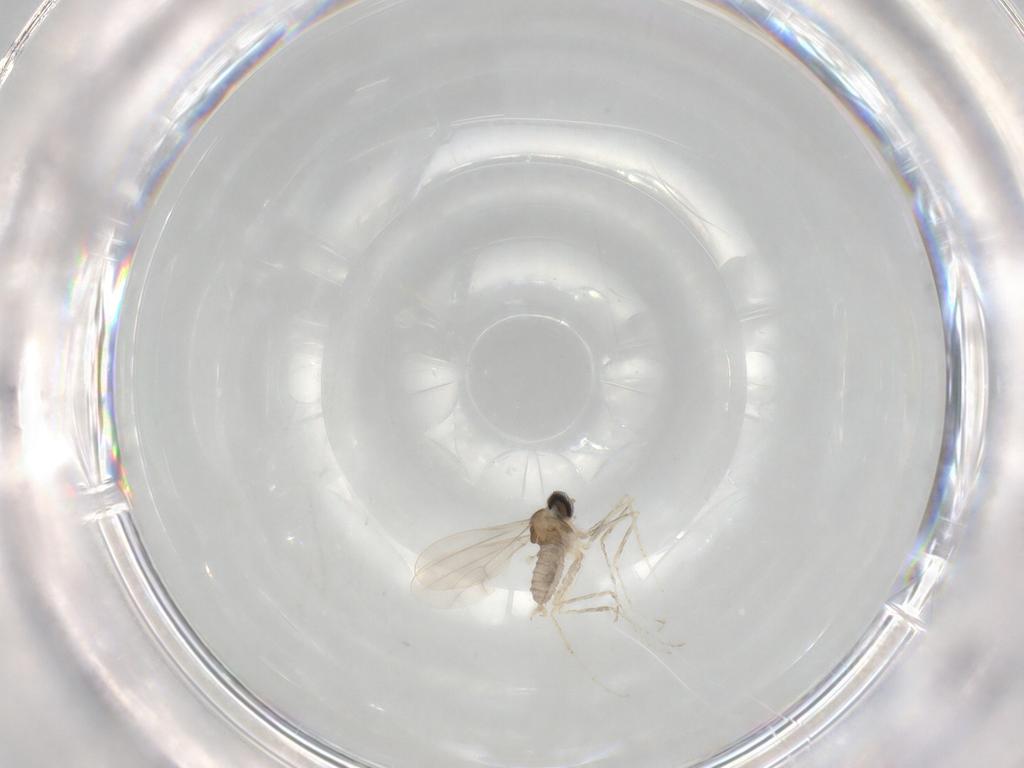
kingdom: Animalia
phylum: Arthropoda
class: Insecta
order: Diptera
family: Cecidomyiidae
